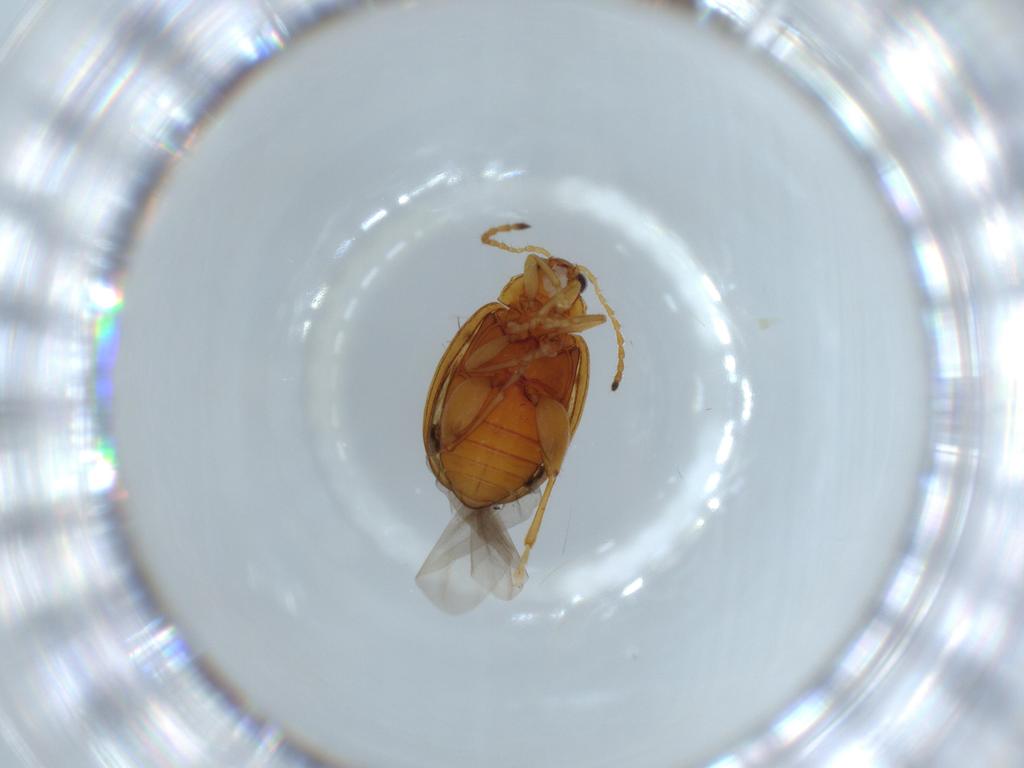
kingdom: Animalia
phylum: Arthropoda
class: Insecta
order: Coleoptera
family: Chrysomelidae
